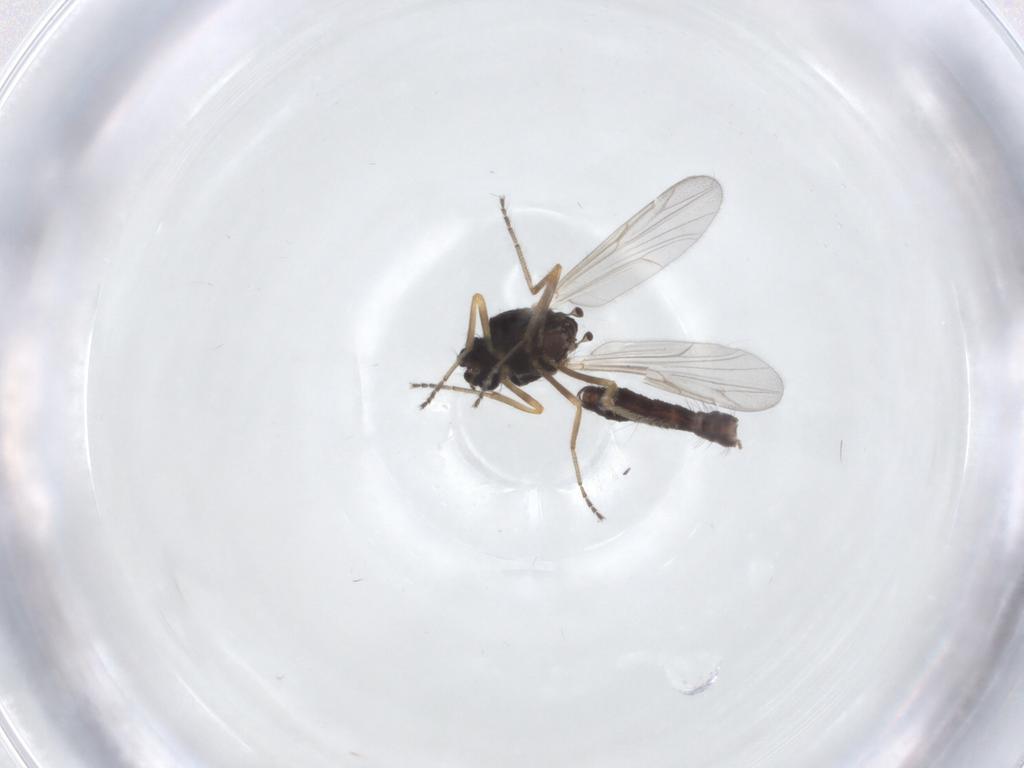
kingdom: Animalia
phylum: Arthropoda
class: Insecta
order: Diptera
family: Ceratopogonidae
